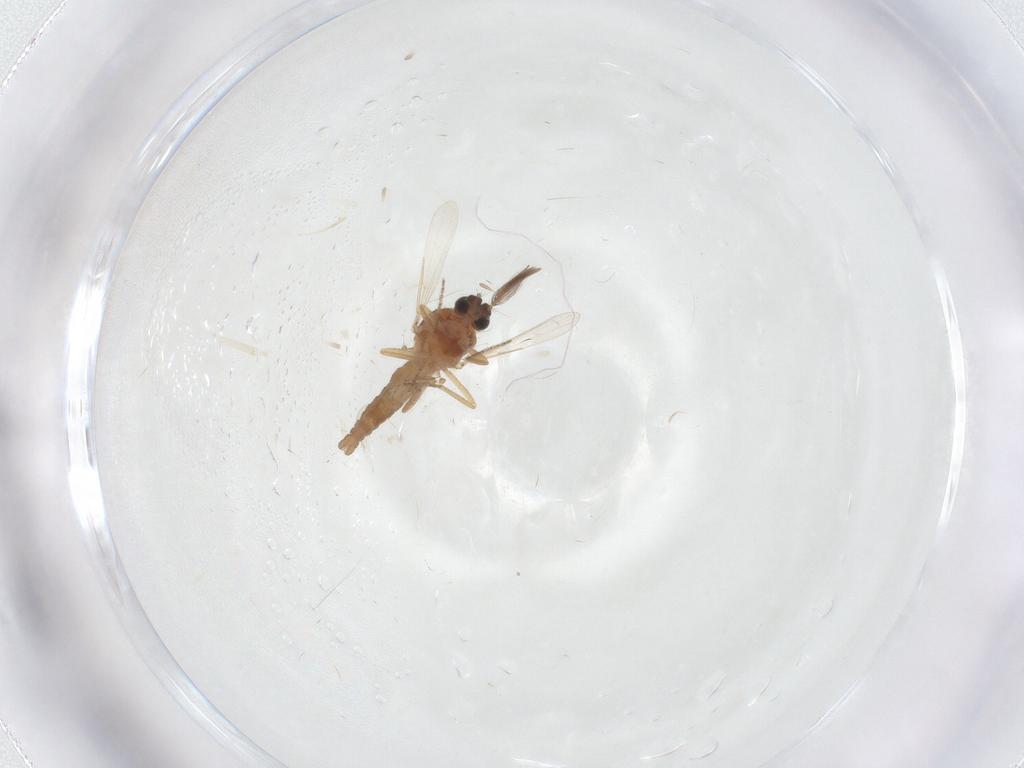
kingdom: Animalia
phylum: Arthropoda
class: Insecta
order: Diptera
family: Ceratopogonidae
